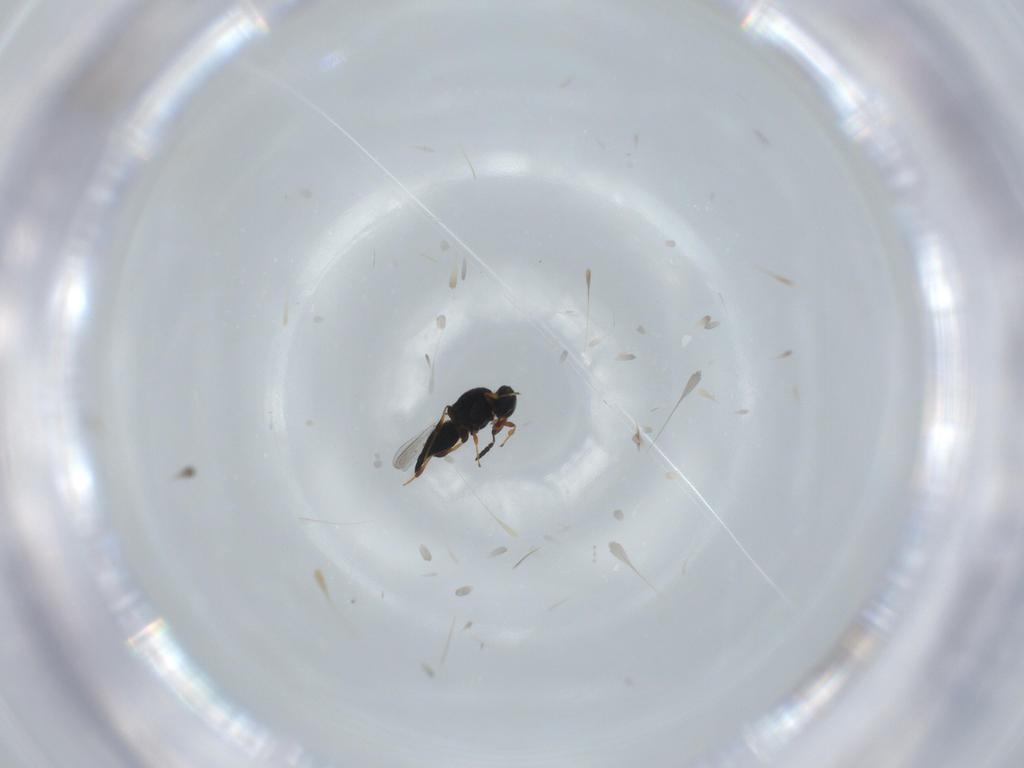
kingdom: Animalia
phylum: Arthropoda
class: Insecta
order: Hymenoptera
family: Platygastridae
